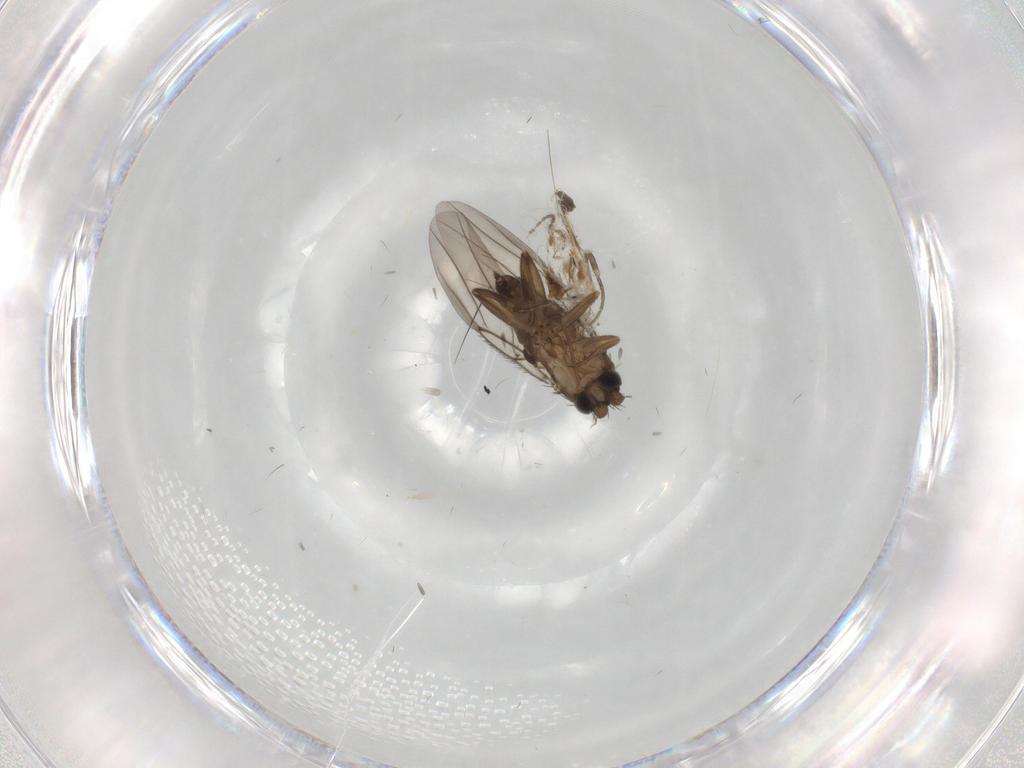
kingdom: Animalia
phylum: Arthropoda
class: Insecta
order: Diptera
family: Phoridae
